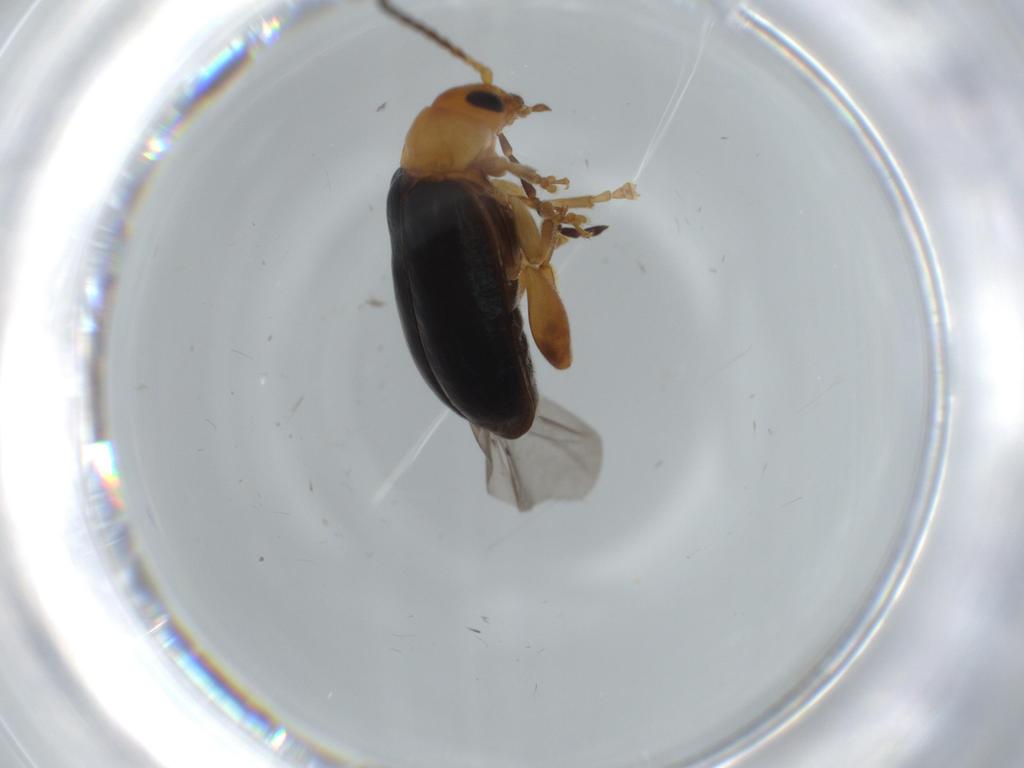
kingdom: Animalia
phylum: Arthropoda
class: Insecta
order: Coleoptera
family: Chrysomelidae
